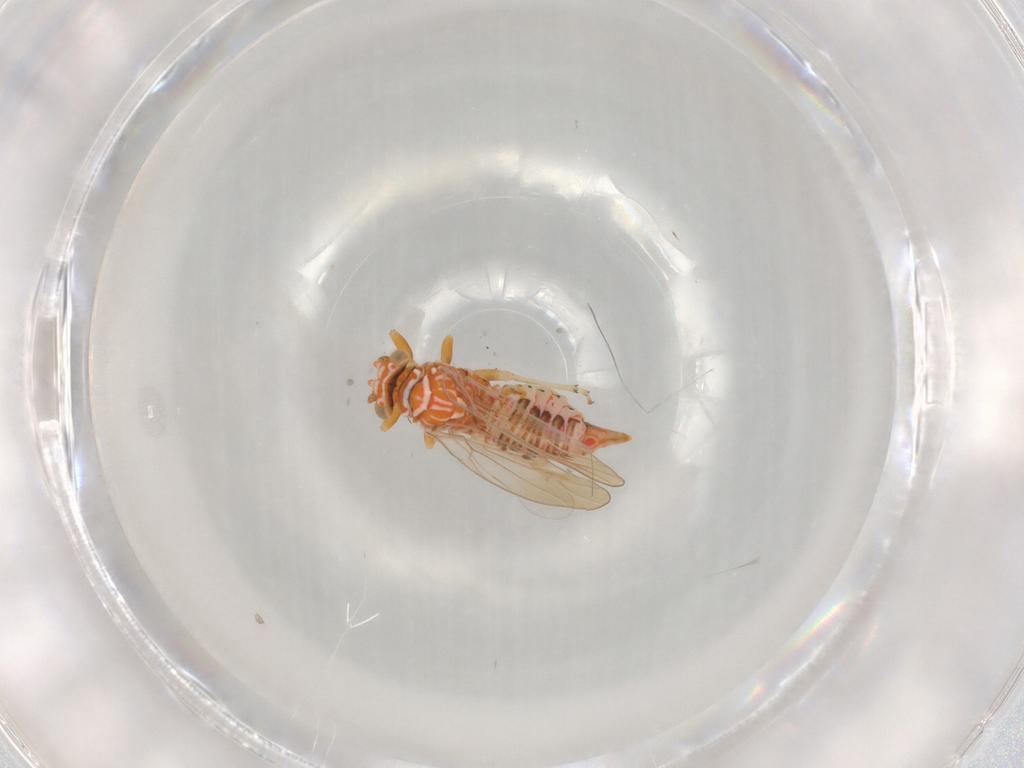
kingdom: Animalia
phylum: Arthropoda
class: Insecta
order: Hemiptera
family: Psyllidae
